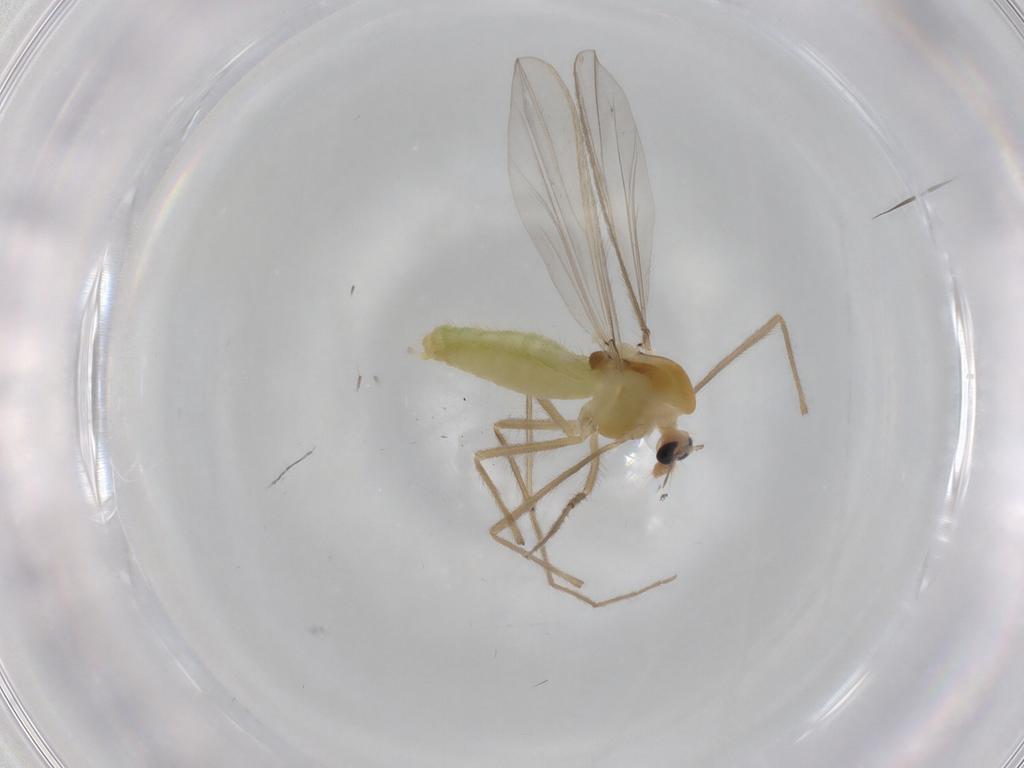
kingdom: Animalia
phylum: Arthropoda
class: Insecta
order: Diptera
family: Chironomidae
